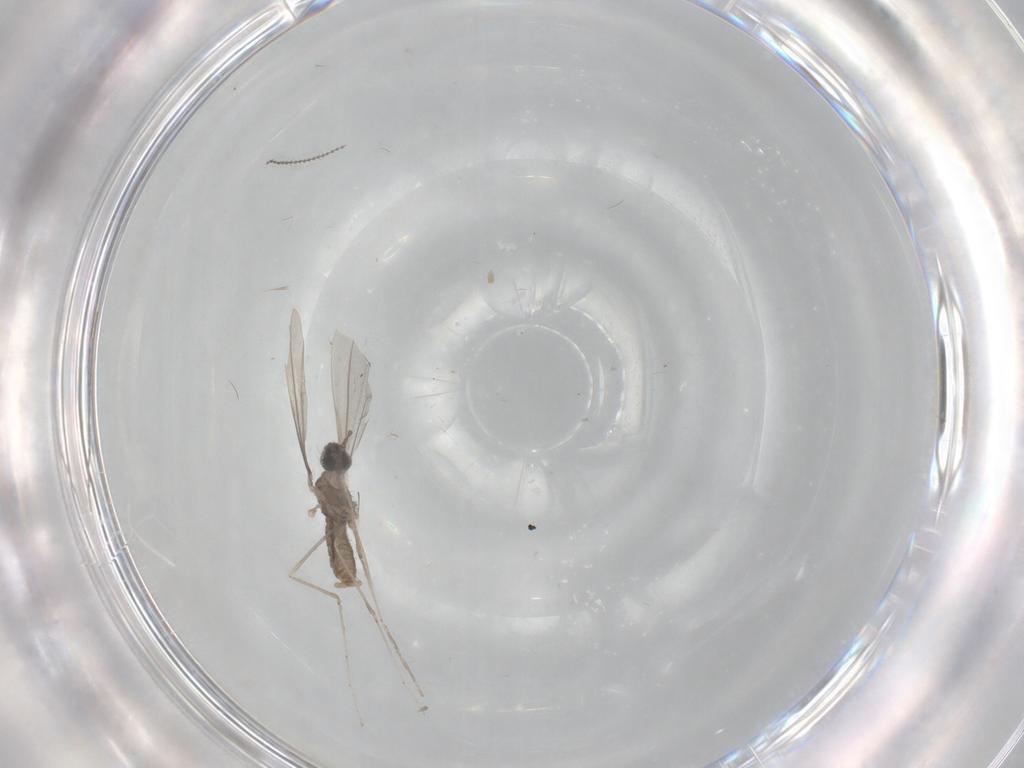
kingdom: Animalia
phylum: Arthropoda
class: Insecta
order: Diptera
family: Cecidomyiidae
